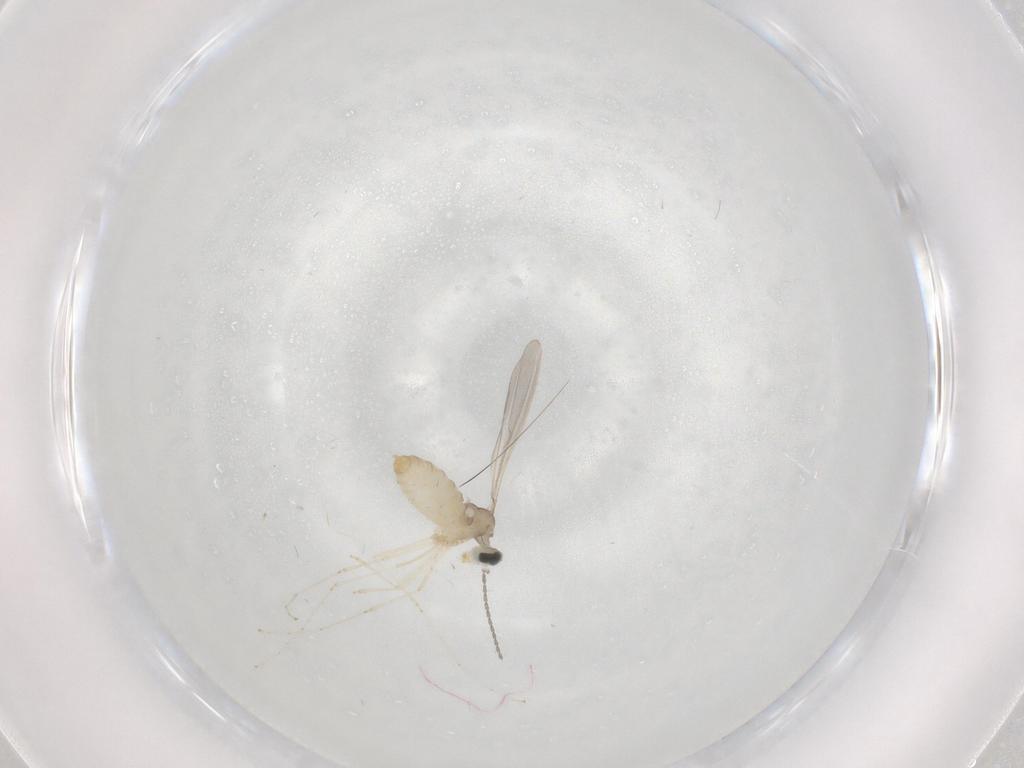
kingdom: Animalia
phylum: Arthropoda
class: Insecta
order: Diptera
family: Cecidomyiidae
